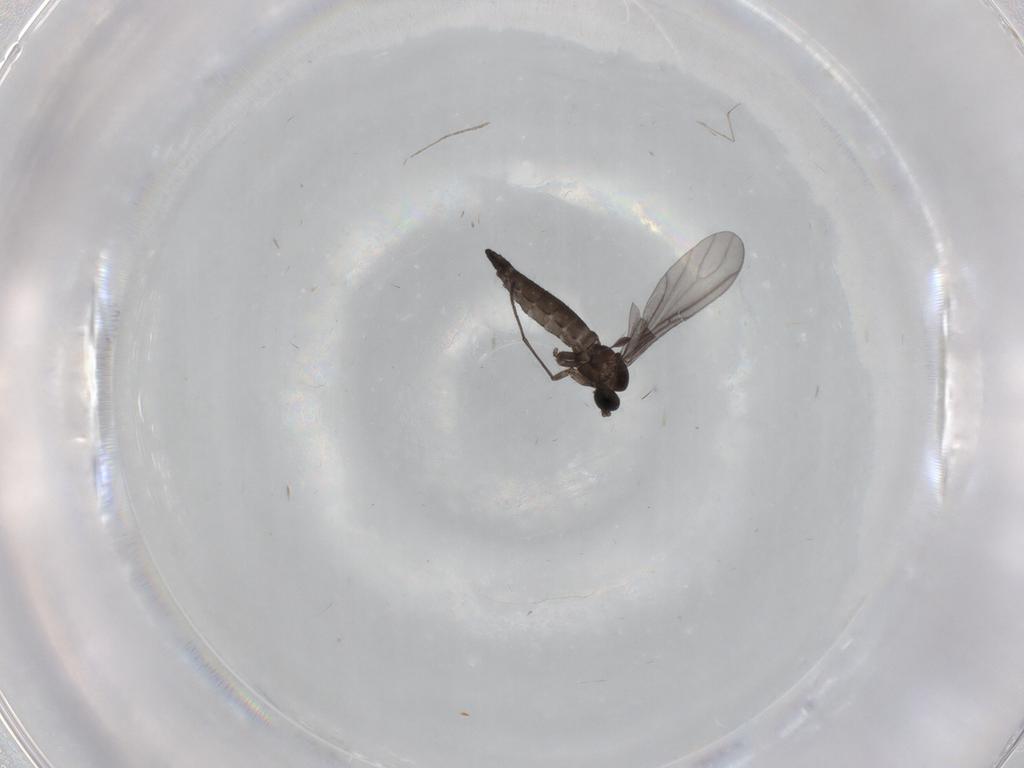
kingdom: Animalia
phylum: Arthropoda
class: Insecta
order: Diptera
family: Sciaridae
